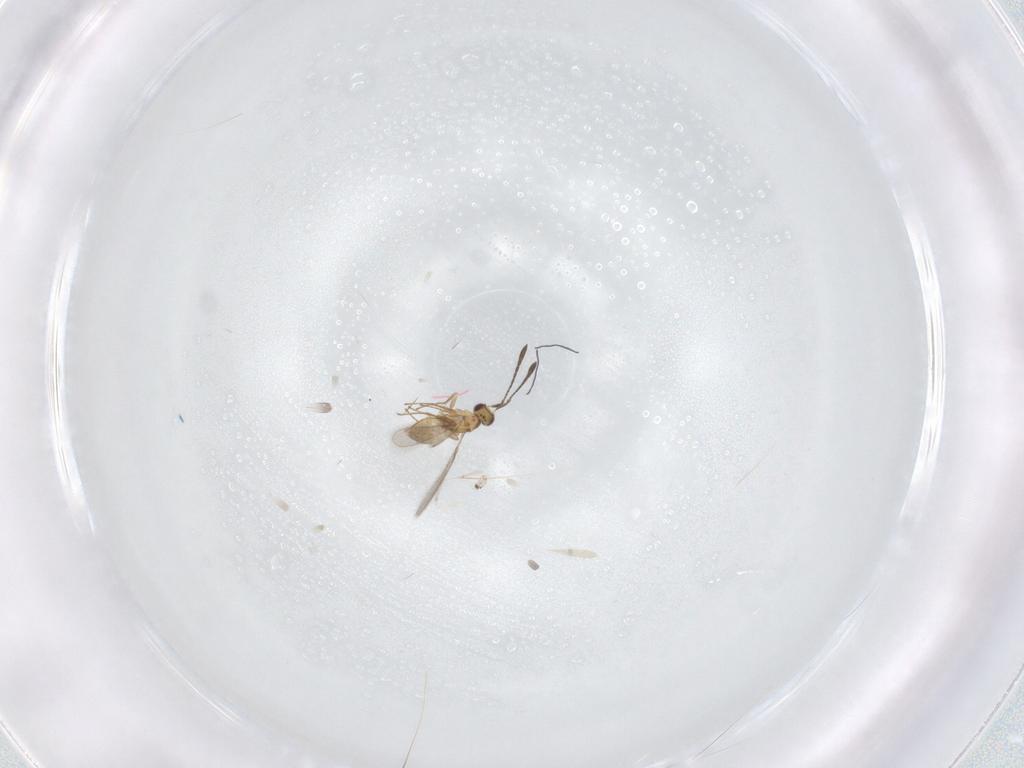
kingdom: Animalia
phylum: Arthropoda
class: Insecta
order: Hymenoptera
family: Mymaridae
